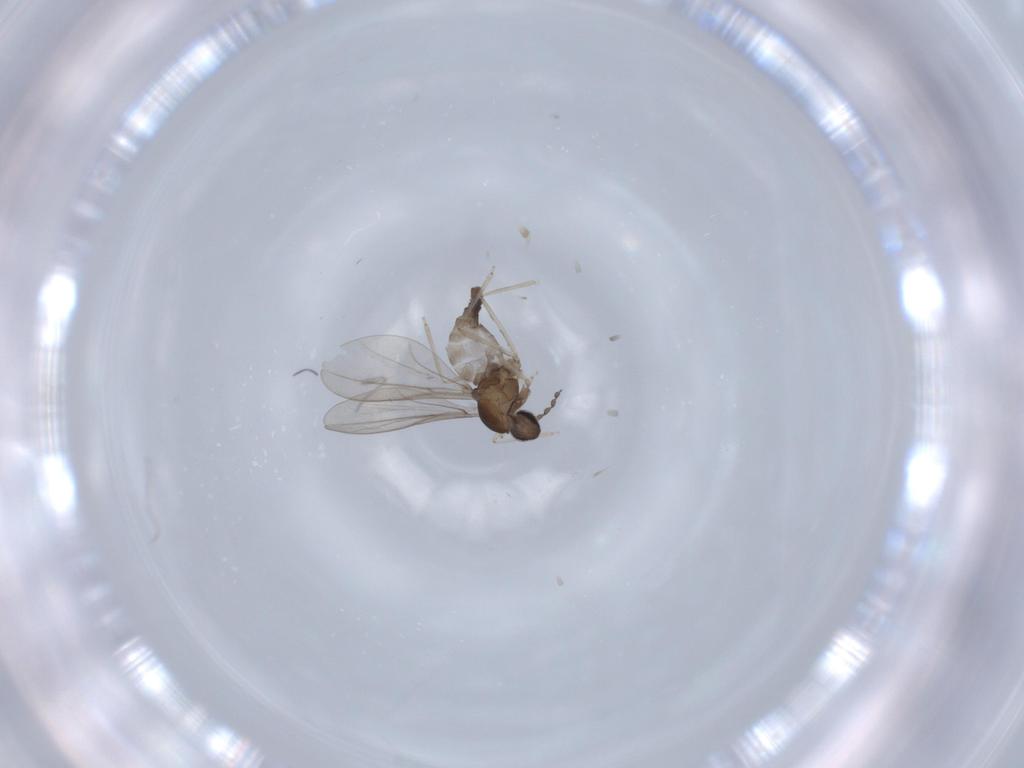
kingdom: Animalia
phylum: Arthropoda
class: Insecta
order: Diptera
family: Cecidomyiidae
